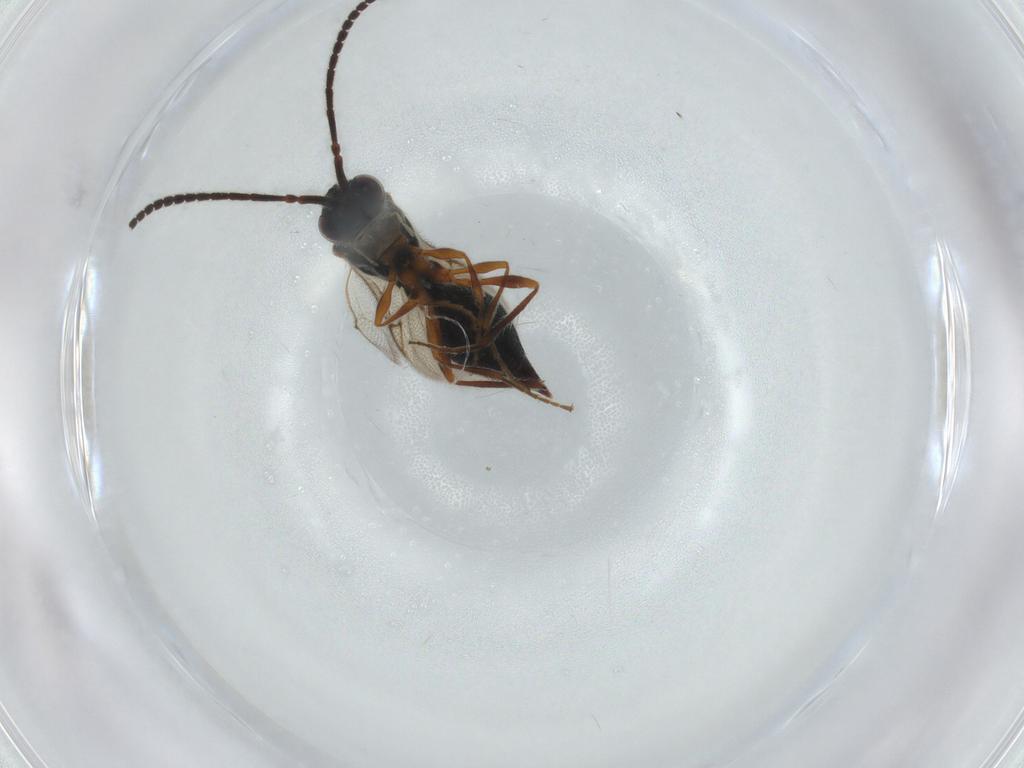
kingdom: Animalia
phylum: Arthropoda
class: Insecta
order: Hymenoptera
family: Diapriidae
